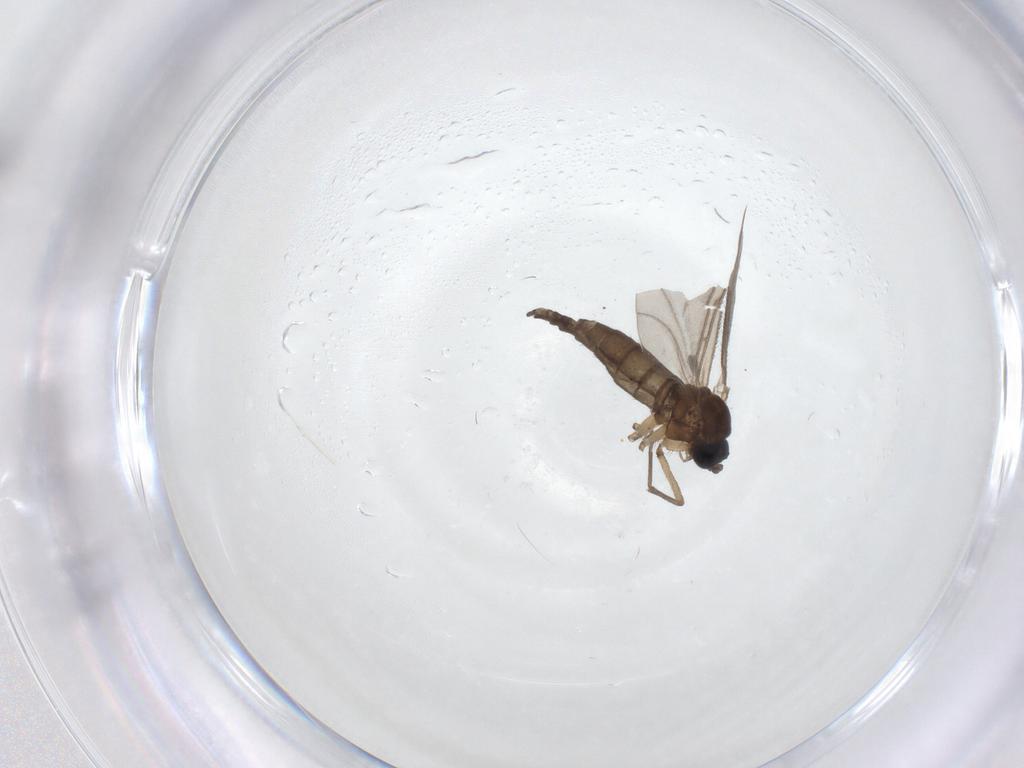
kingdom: Animalia
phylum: Arthropoda
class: Insecta
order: Diptera
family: Sciaridae
